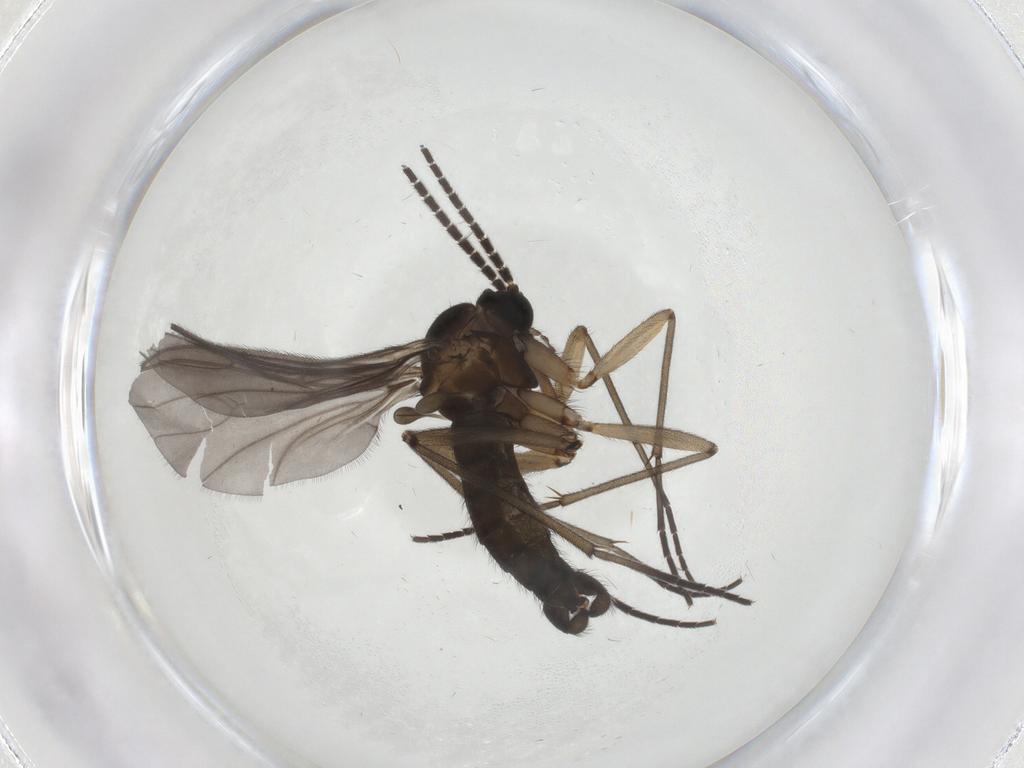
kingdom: Animalia
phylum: Arthropoda
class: Insecta
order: Diptera
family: Sciaridae
